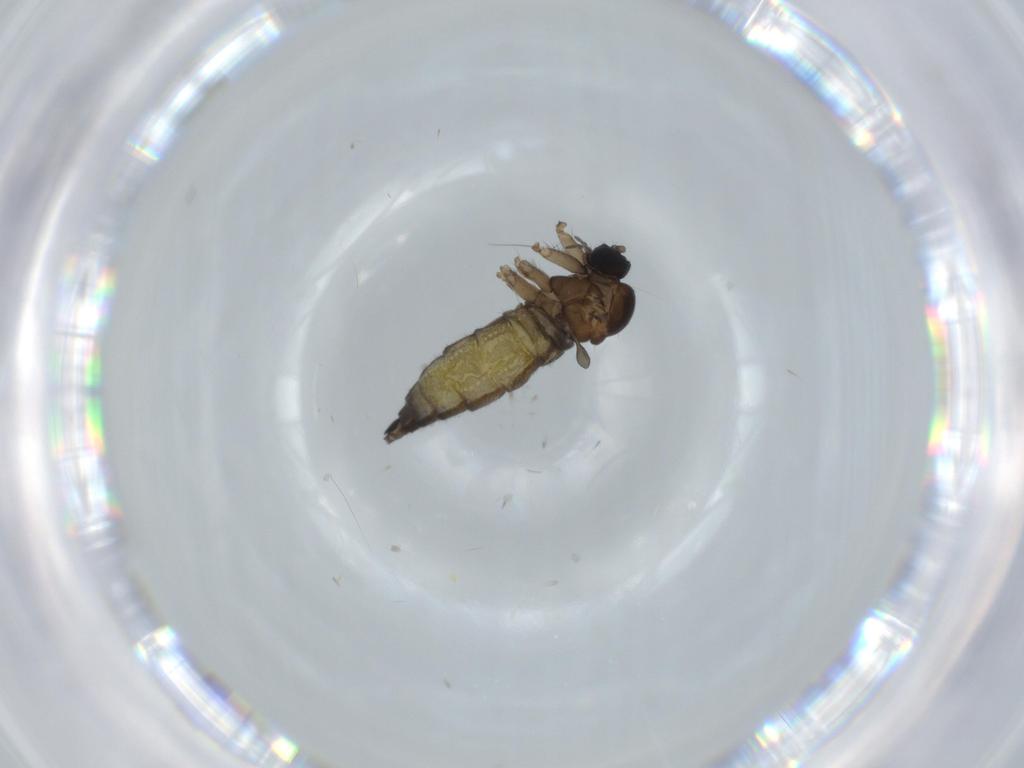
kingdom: Animalia
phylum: Arthropoda
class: Insecta
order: Diptera
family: Sciaridae
